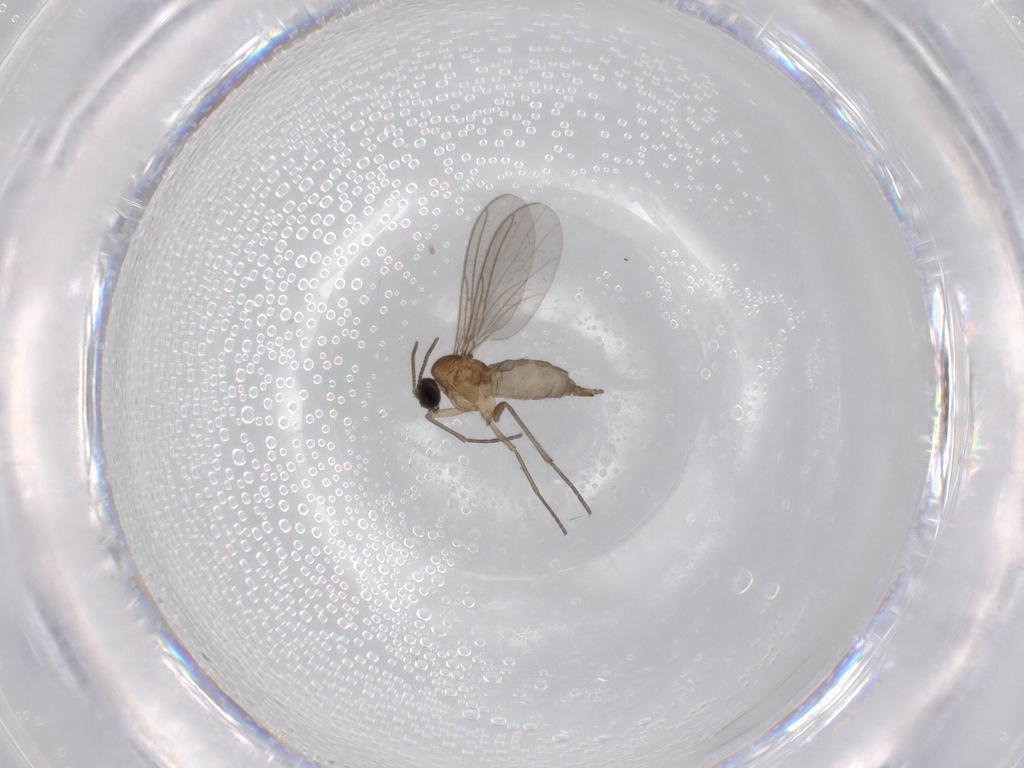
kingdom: Animalia
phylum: Arthropoda
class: Insecta
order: Diptera
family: Sciaridae
